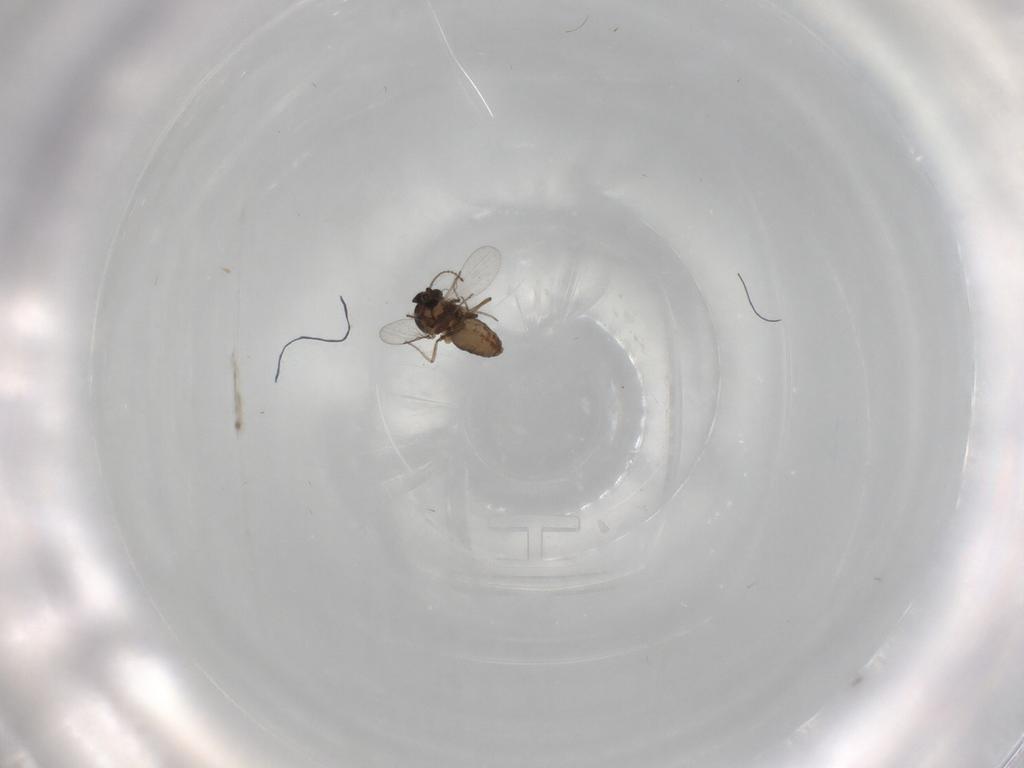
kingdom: Animalia
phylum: Arthropoda
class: Insecta
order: Diptera
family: Ceratopogonidae
